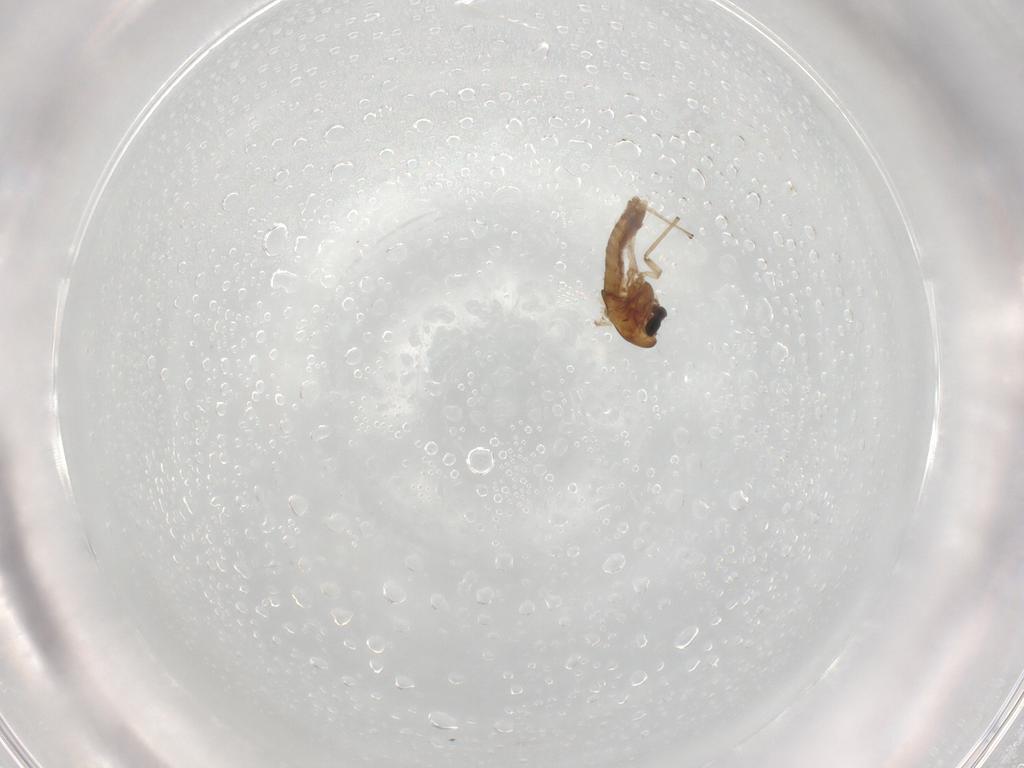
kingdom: Animalia
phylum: Arthropoda
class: Insecta
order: Diptera
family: Chironomidae
